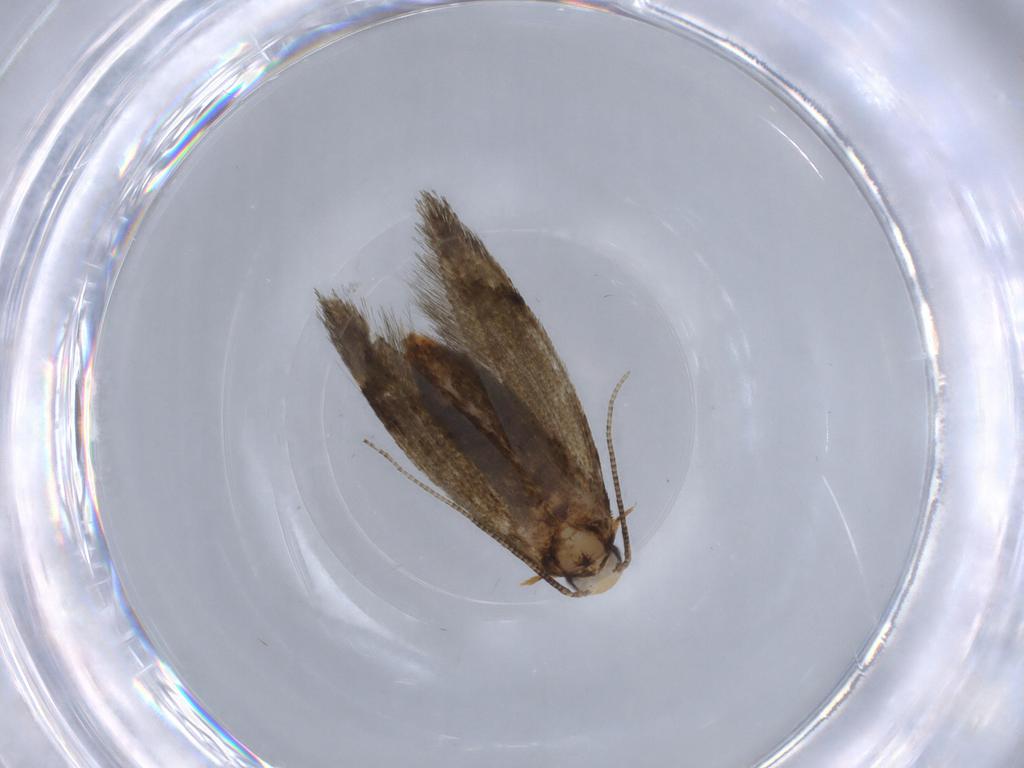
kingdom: Animalia
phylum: Arthropoda
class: Insecta
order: Lepidoptera
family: Tineidae
